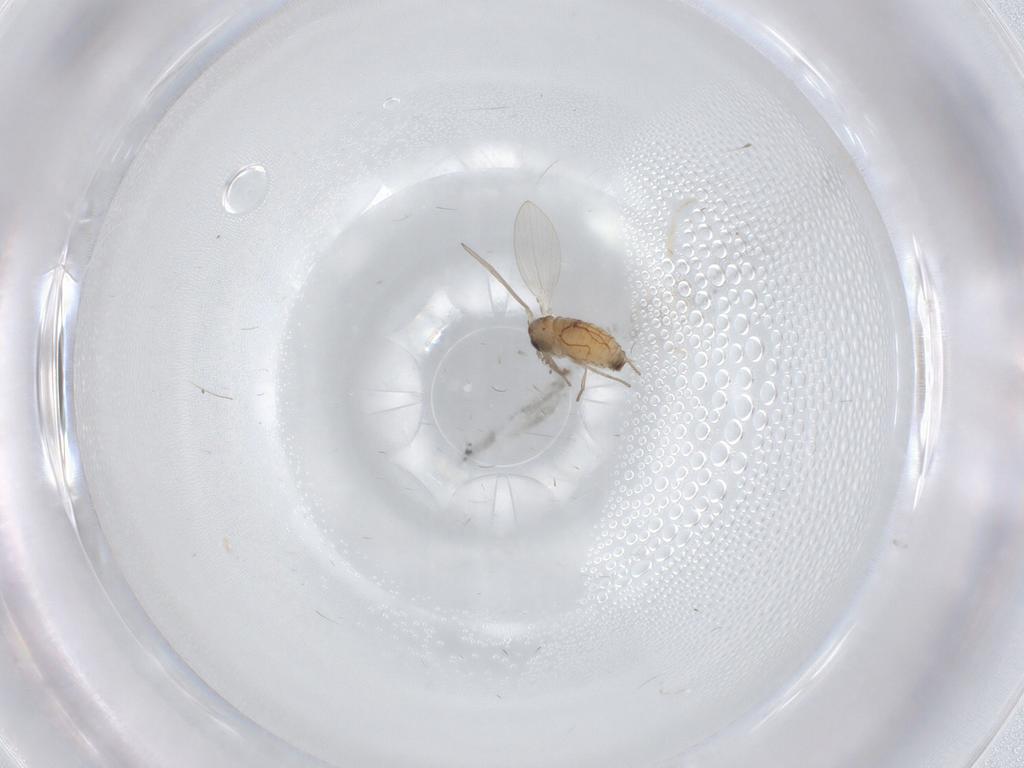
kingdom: Animalia
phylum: Arthropoda
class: Insecta
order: Diptera
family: Psychodidae
